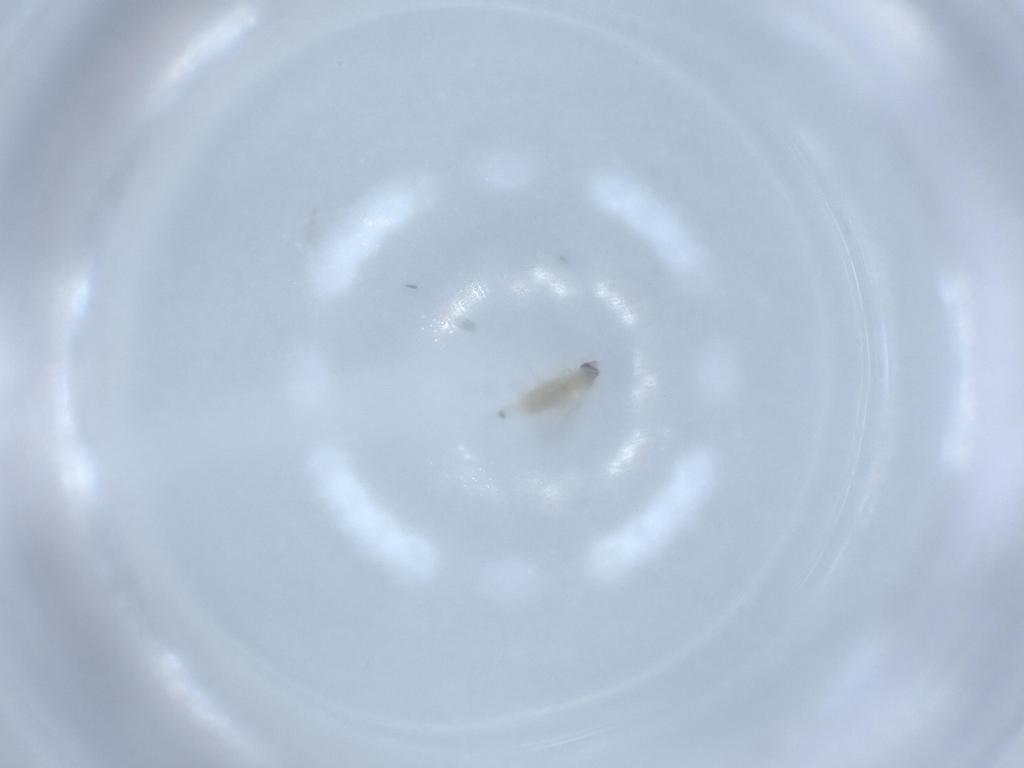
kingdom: Animalia
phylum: Arthropoda
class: Insecta
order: Diptera
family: Cecidomyiidae
